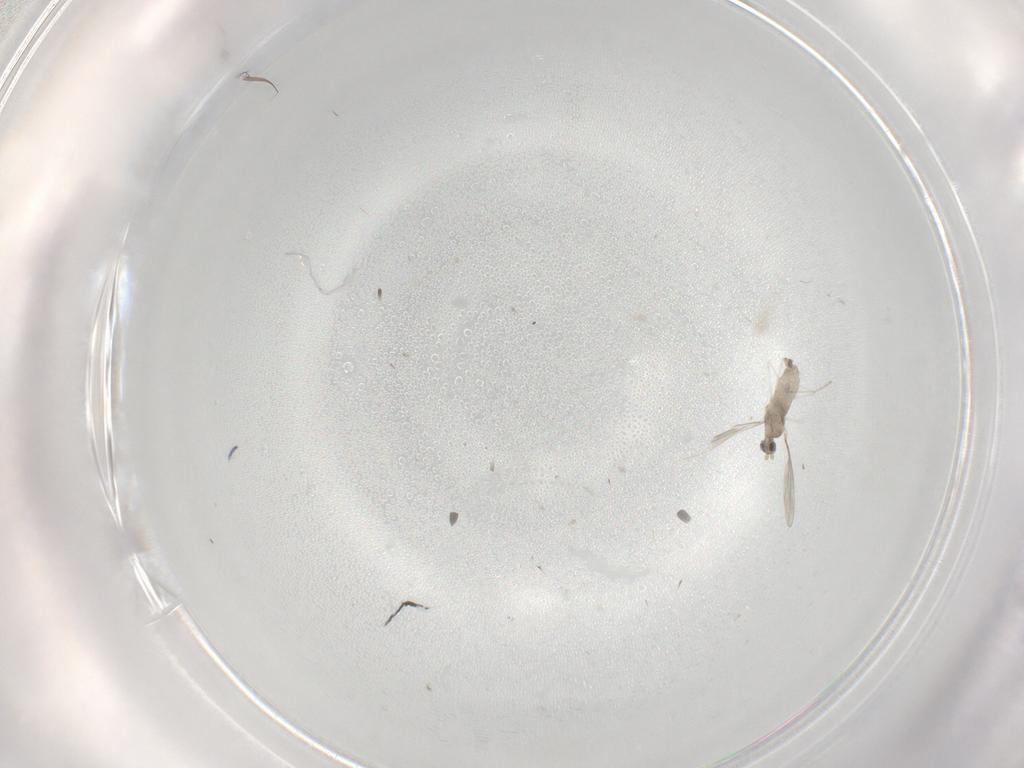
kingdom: Animalia
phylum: Arthropoda
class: Insecta
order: Diptera
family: Cecidomyiidae
